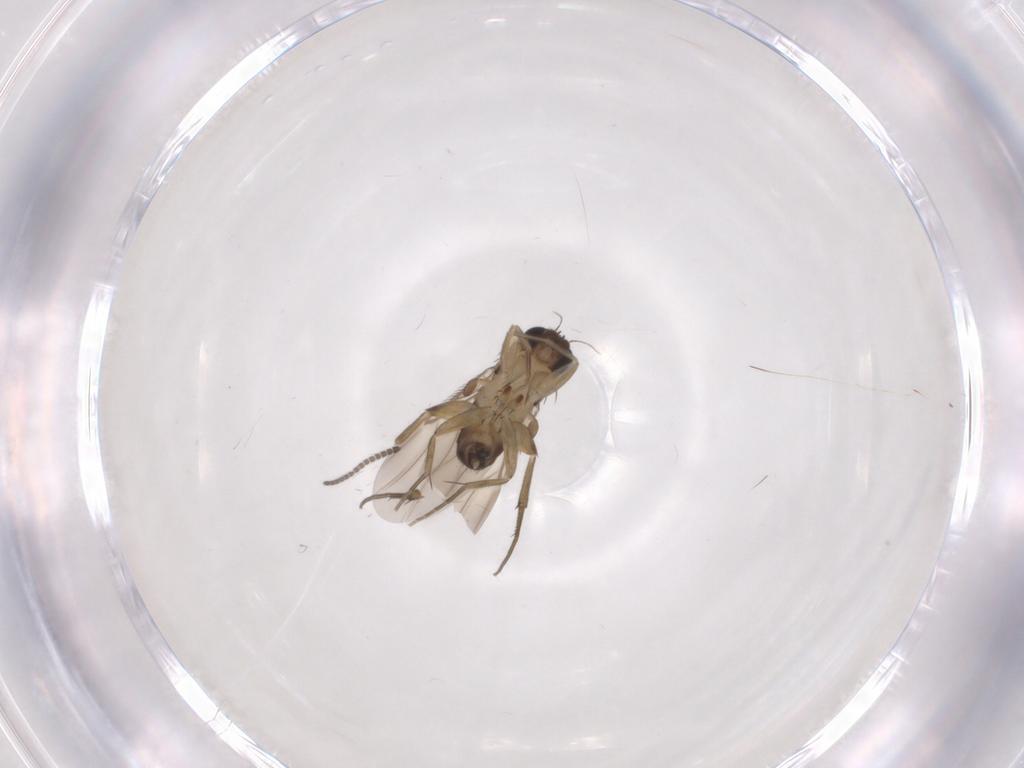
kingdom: Animalia
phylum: Arthropoda
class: Insecta
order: Diptera
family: Phoridae
